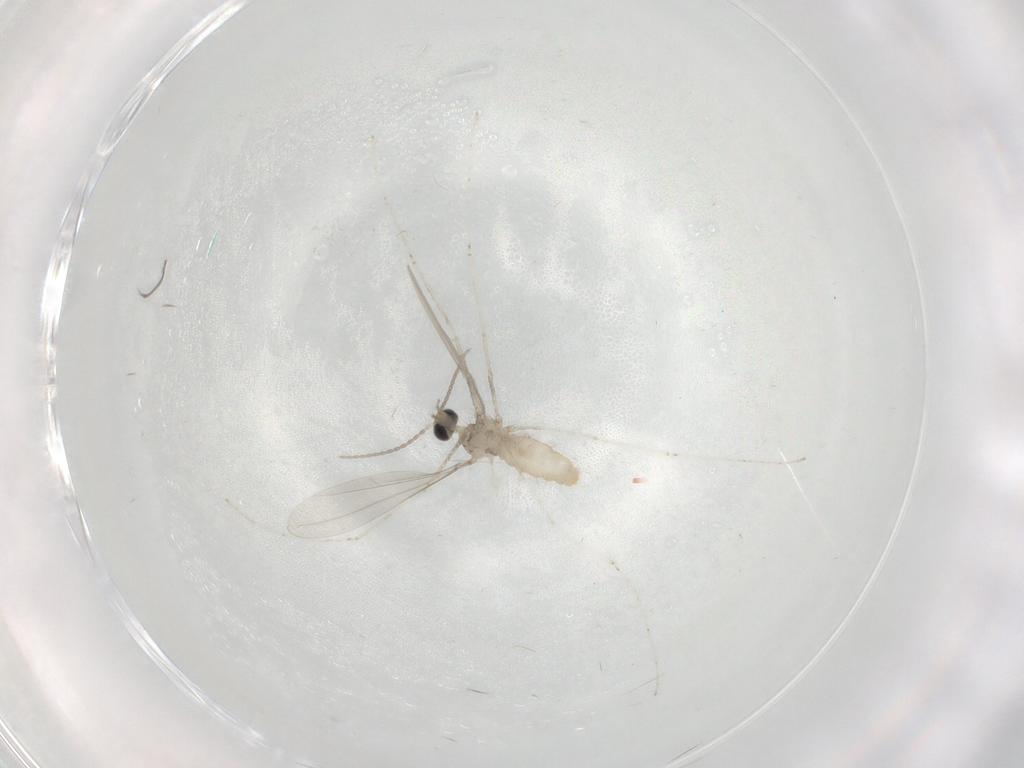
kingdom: Animalia
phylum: Arthropoda
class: Insecta
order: Diptera
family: Cecidomyiidae
